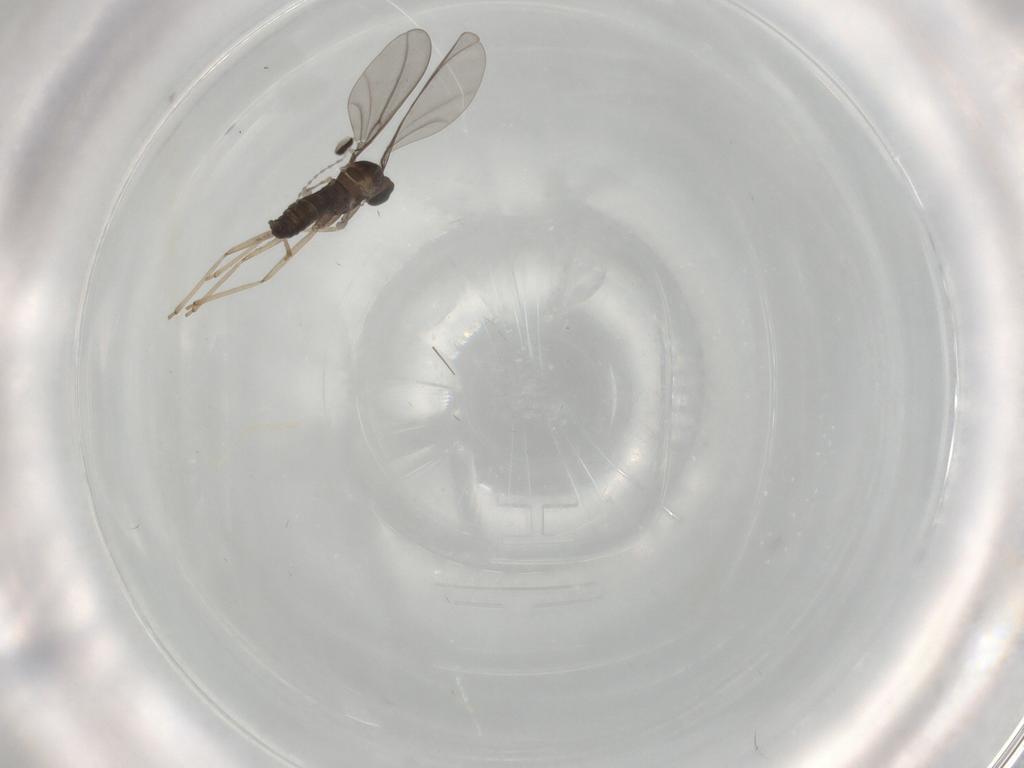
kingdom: Animalia
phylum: Arthropoda
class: Insecta
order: Diptera
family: Cecidomyiidae
